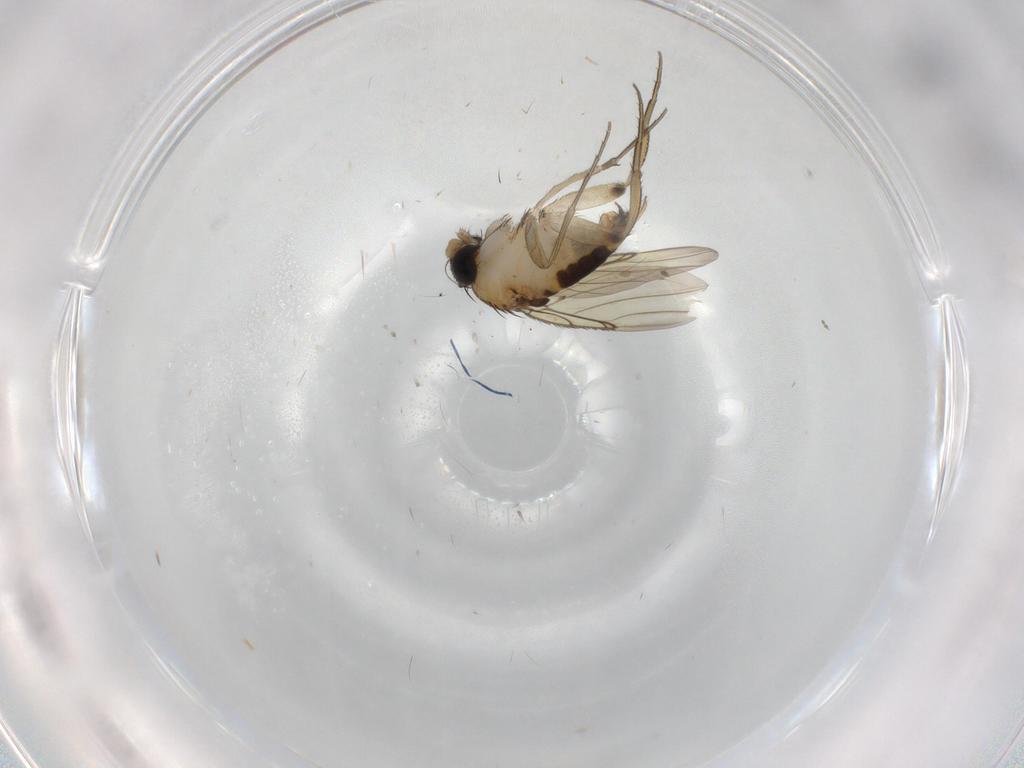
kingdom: Animalia
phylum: Arthropoda
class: Insecta
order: Diptera
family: Phoridae
